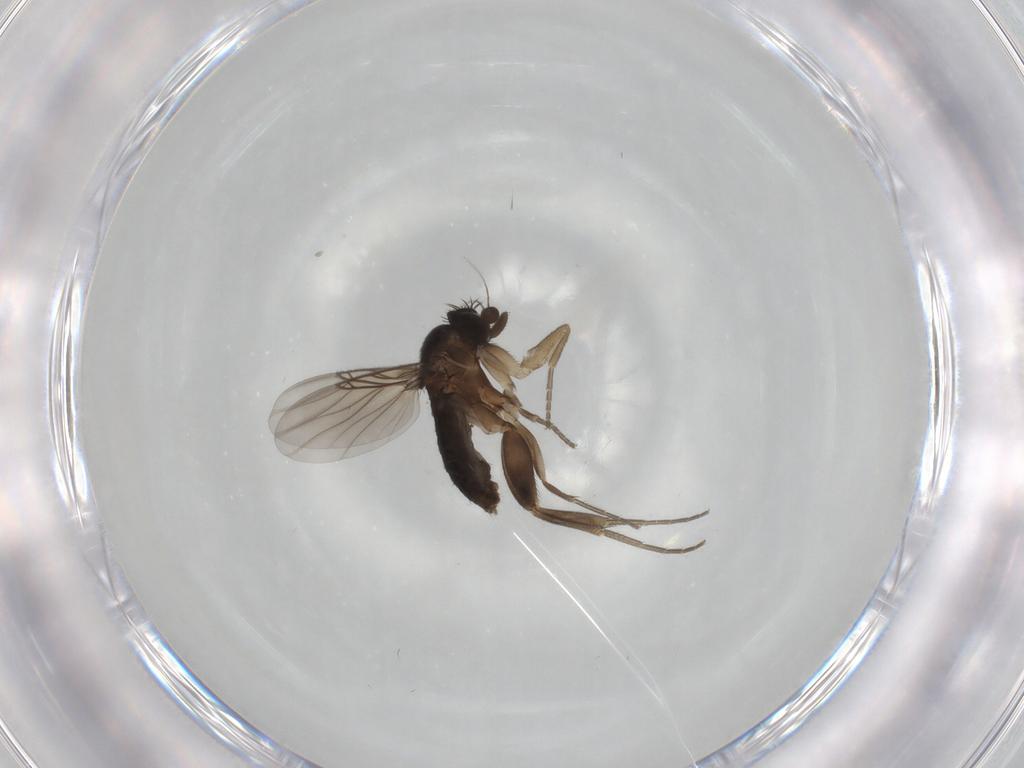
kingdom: Animalia
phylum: Arthropoda
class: Insecta
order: Diptera
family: Phoridae
